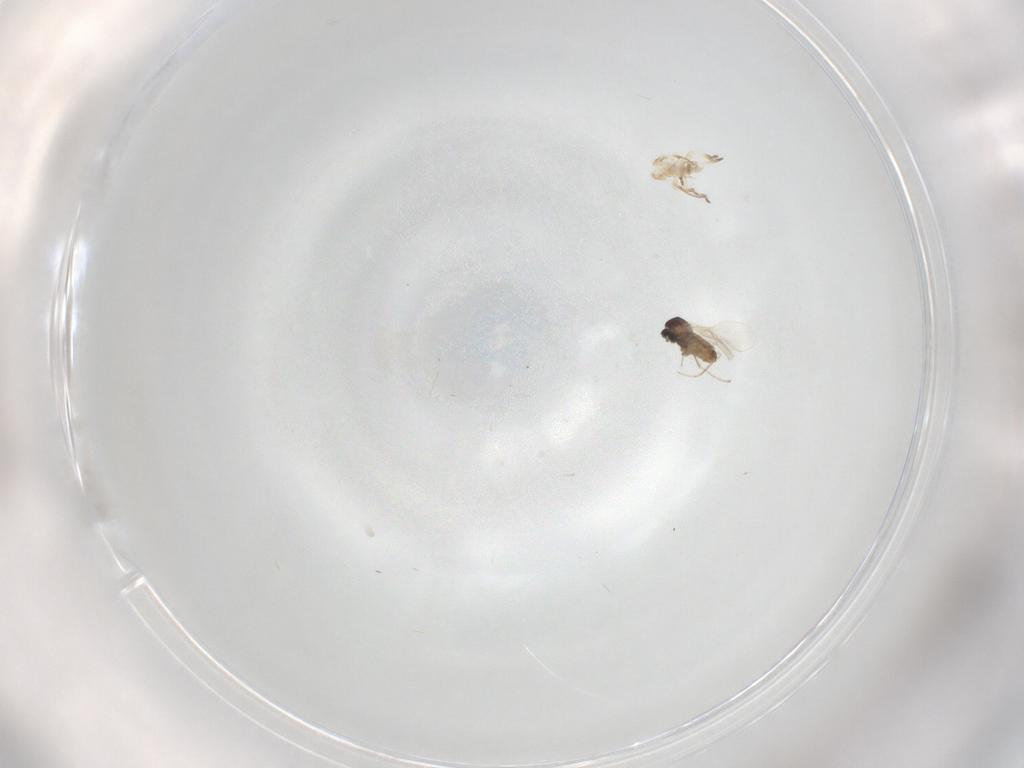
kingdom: Animalia
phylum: Arthropoda
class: Insecta
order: Diptera
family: Cecidomyiidae
